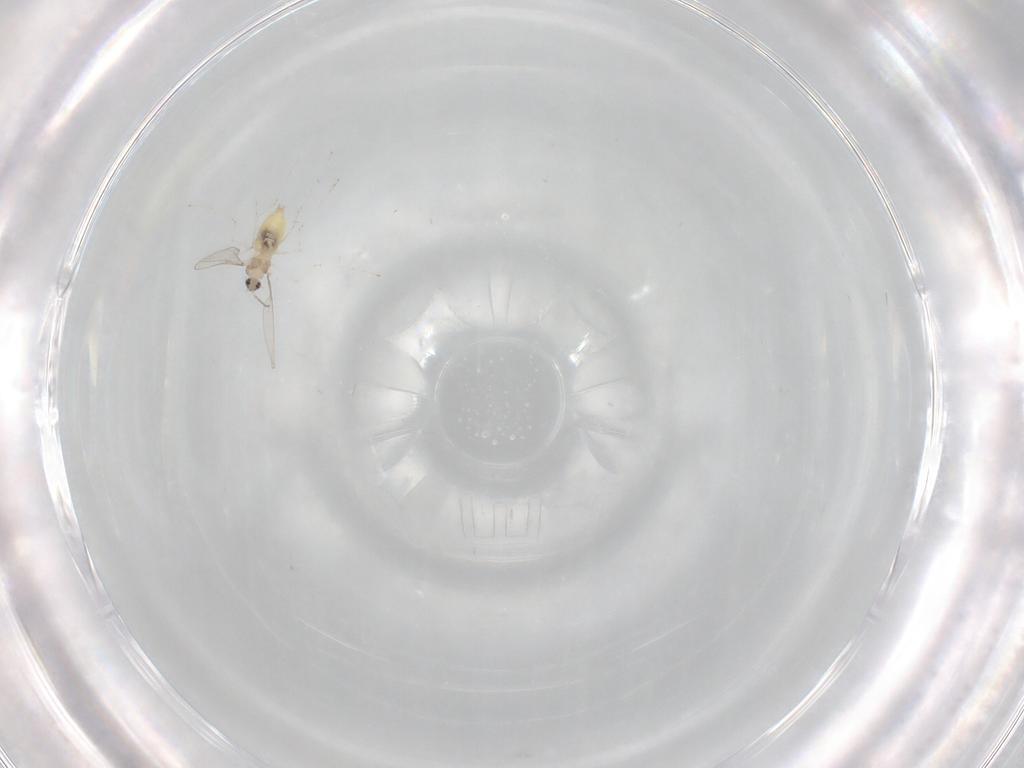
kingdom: Animalia
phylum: Arthropoda
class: Insecta
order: Diptera
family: Cecidomyiidae
